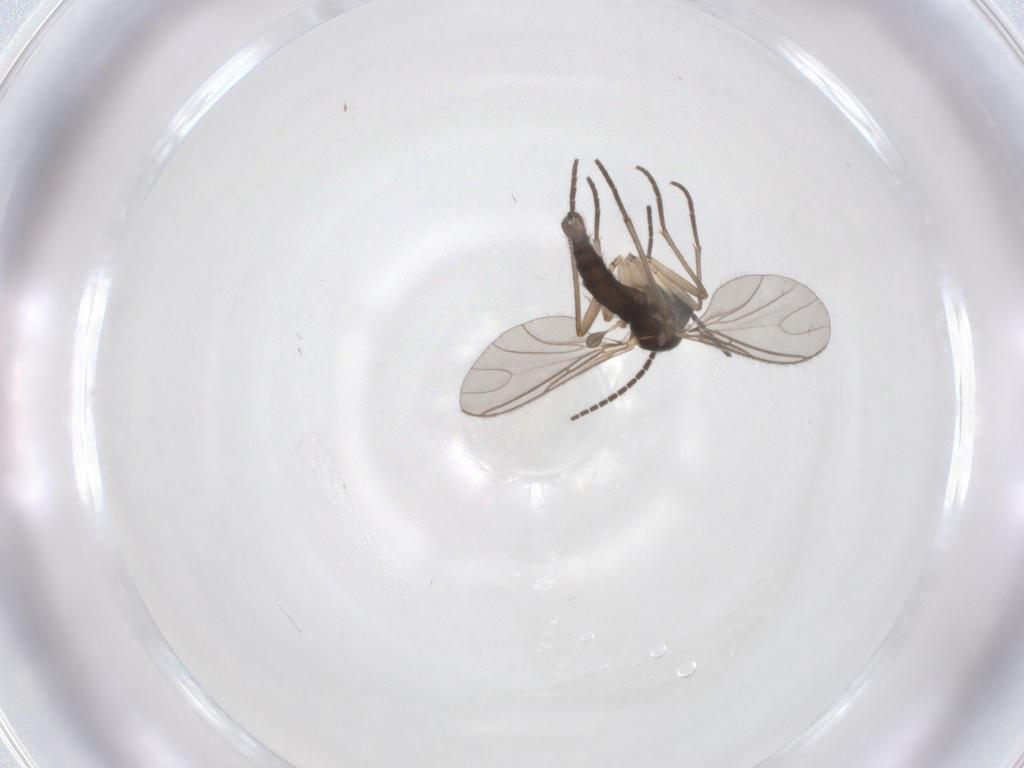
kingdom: Animalia
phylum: Arthropoda
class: Insecta
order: Diptera
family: Sciaridae
